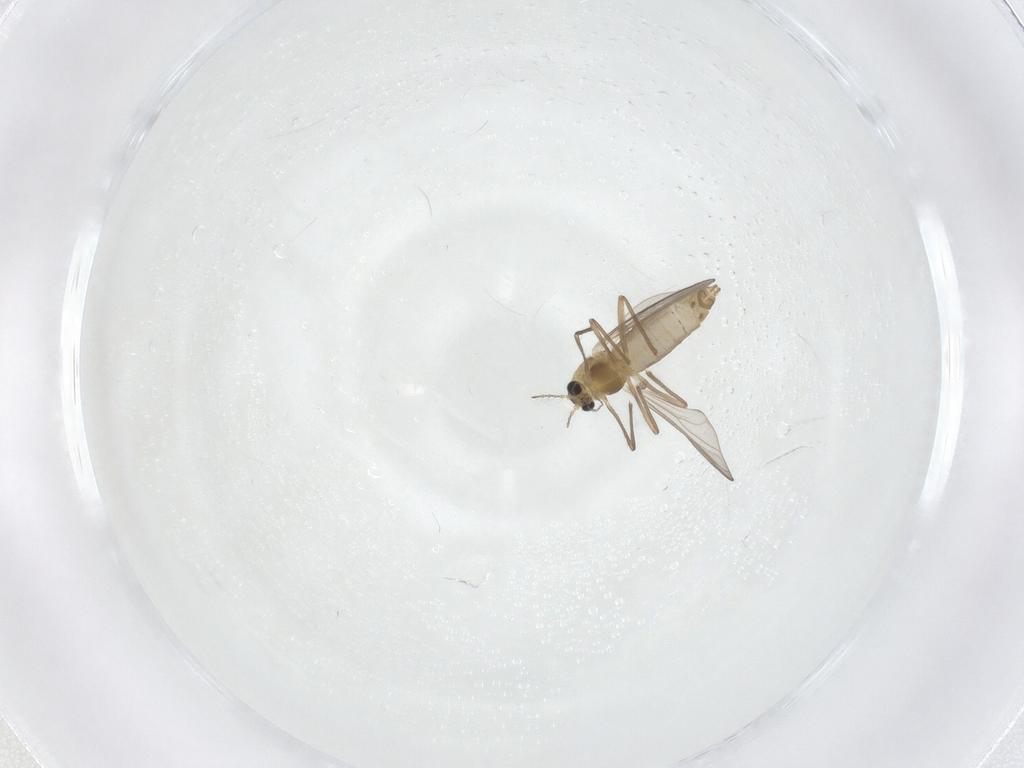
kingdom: Animalia
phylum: Arthropoda
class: Insecta
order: Diptera
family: Chironomidae
